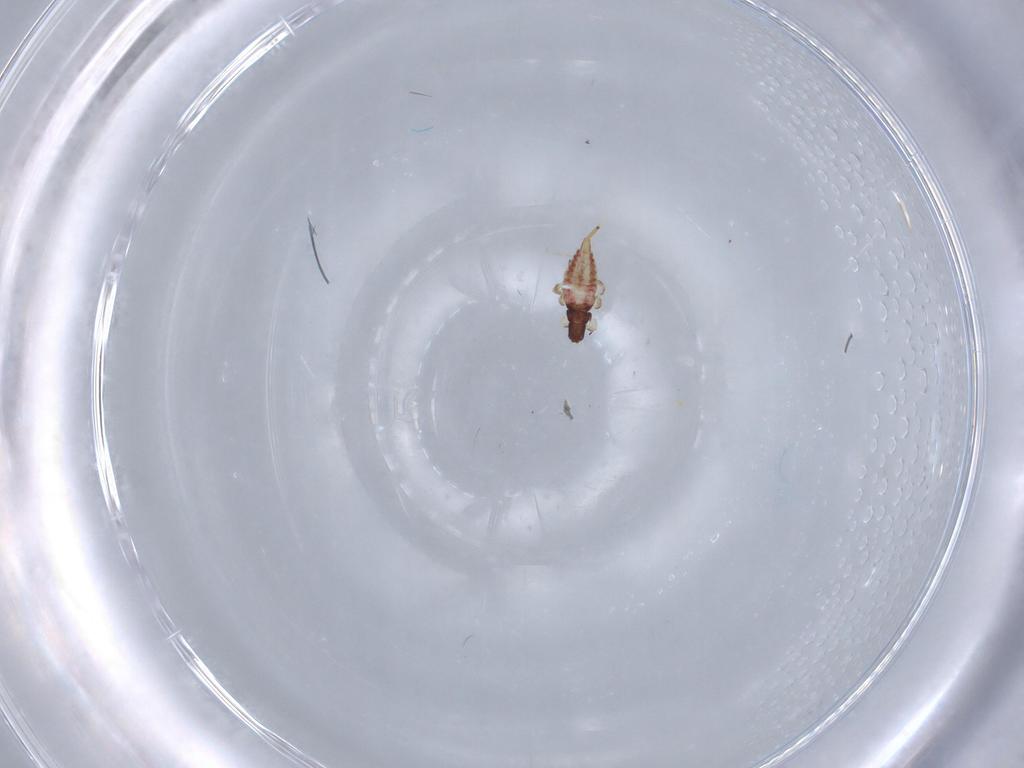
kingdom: Animalia
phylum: Arthropoda
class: Insecta
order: Thysanoptera
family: Phlaeothripidae
